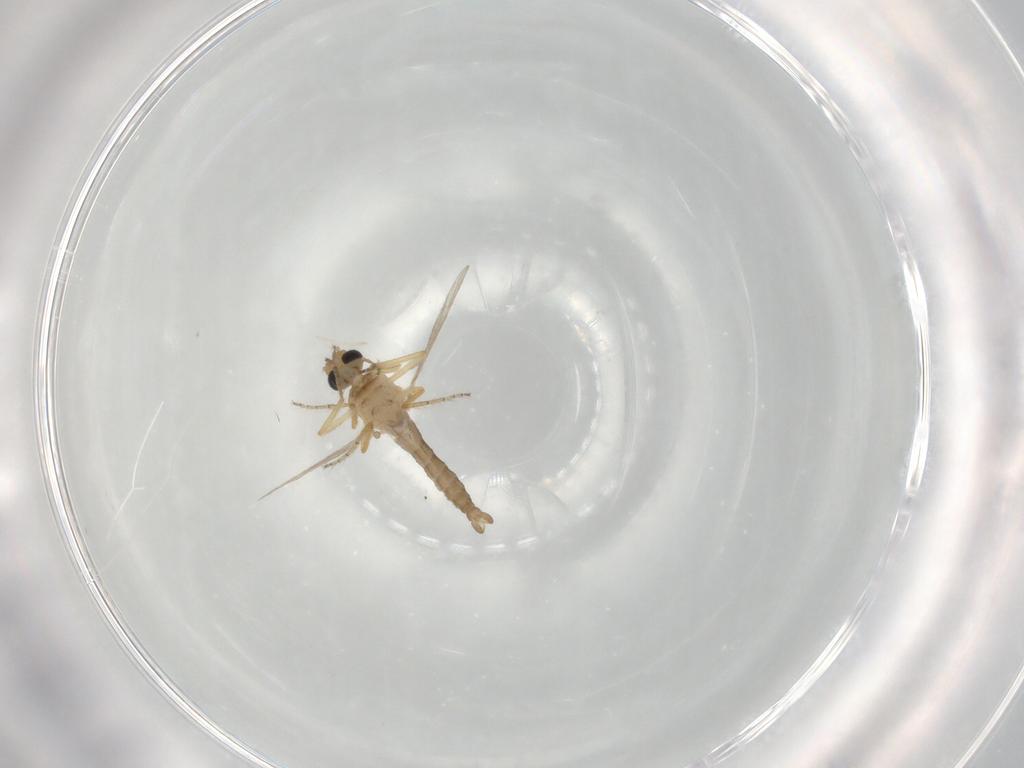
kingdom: Animalia
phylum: Arthropoda
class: Insecta
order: Diptera
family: Ceratopogonidae
